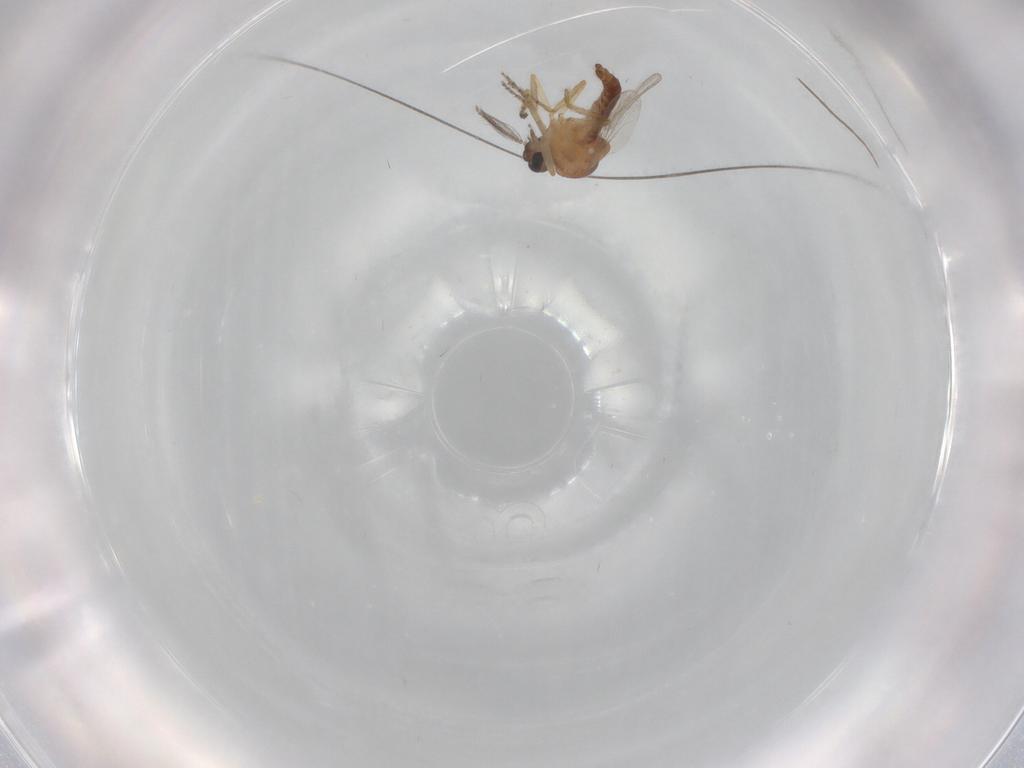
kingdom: Animalia
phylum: Arthropoda
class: Insecta
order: Diptera
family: Ceratopogonidae
